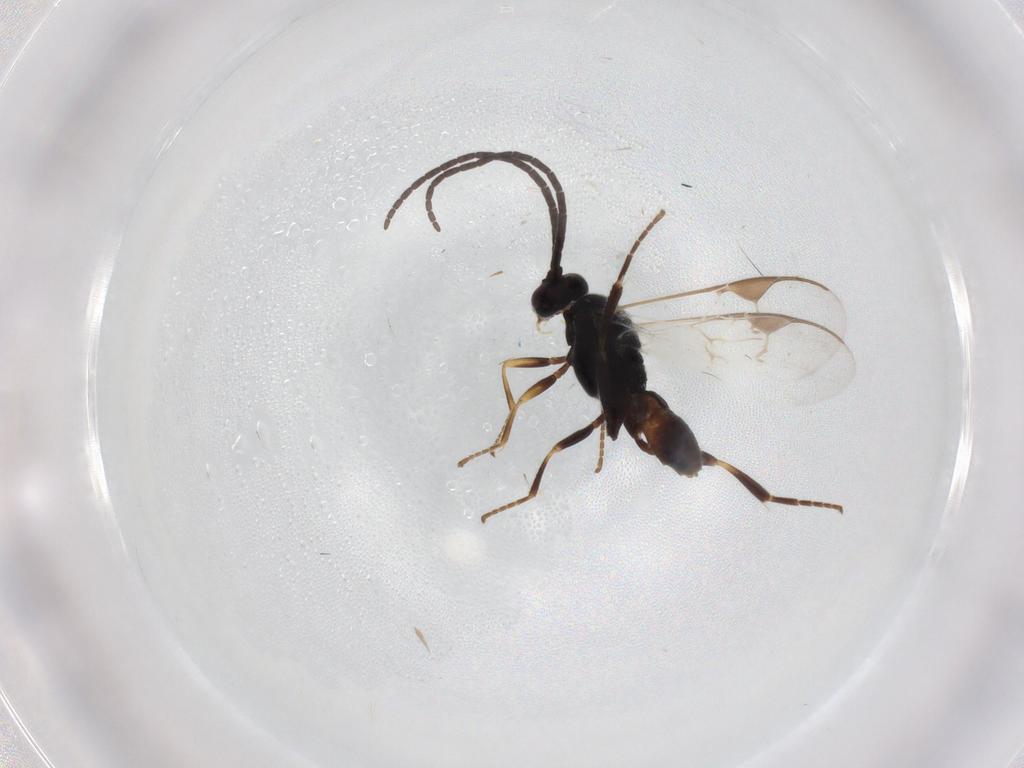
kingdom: Animalia
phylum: Arthropoda
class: Insecta
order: Hymenoptera
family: Braconidae
